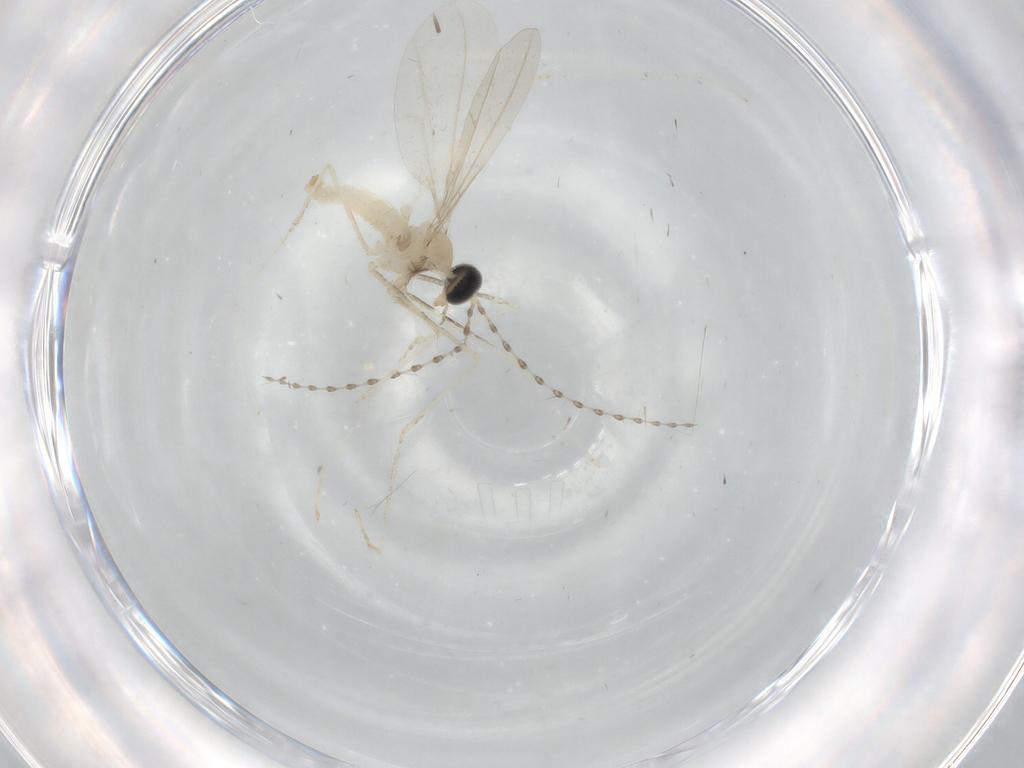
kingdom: Animalia
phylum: Arthropoda
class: Insecta
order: Diptera
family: Cecidomyiidae
